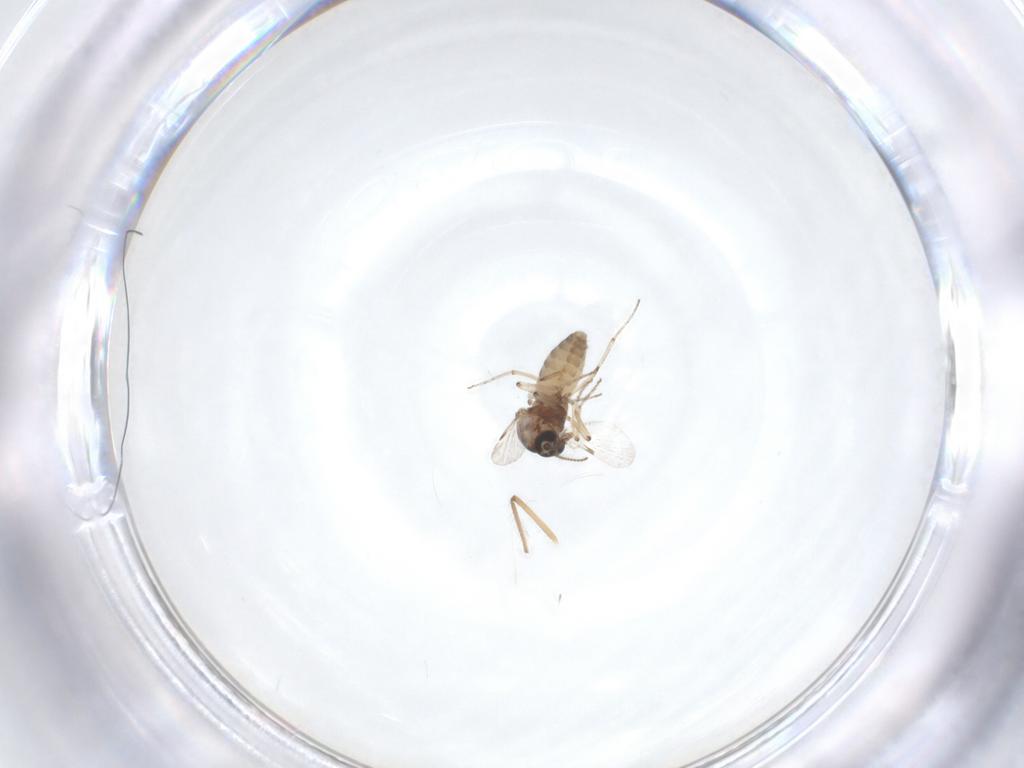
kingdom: Animalia
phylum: Arthropoda
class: Insecta
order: Diptera
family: Ceratopogonidae
